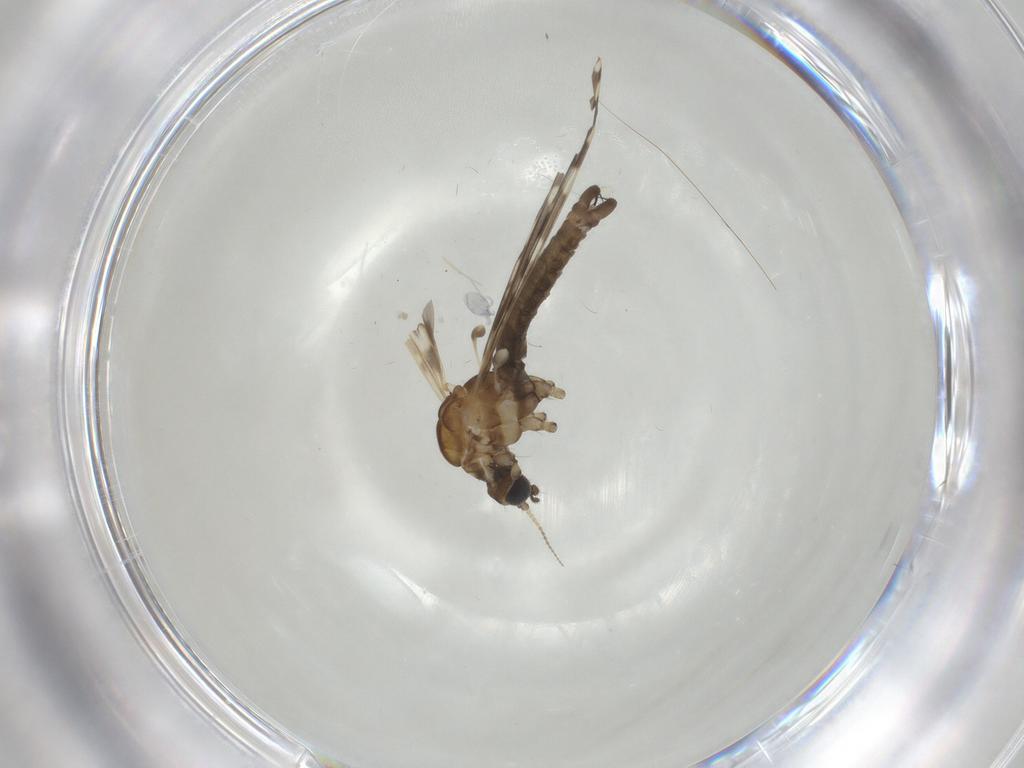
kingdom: Animalia
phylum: Arthropoda
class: Insecta
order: Diptera
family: Limoniidae
